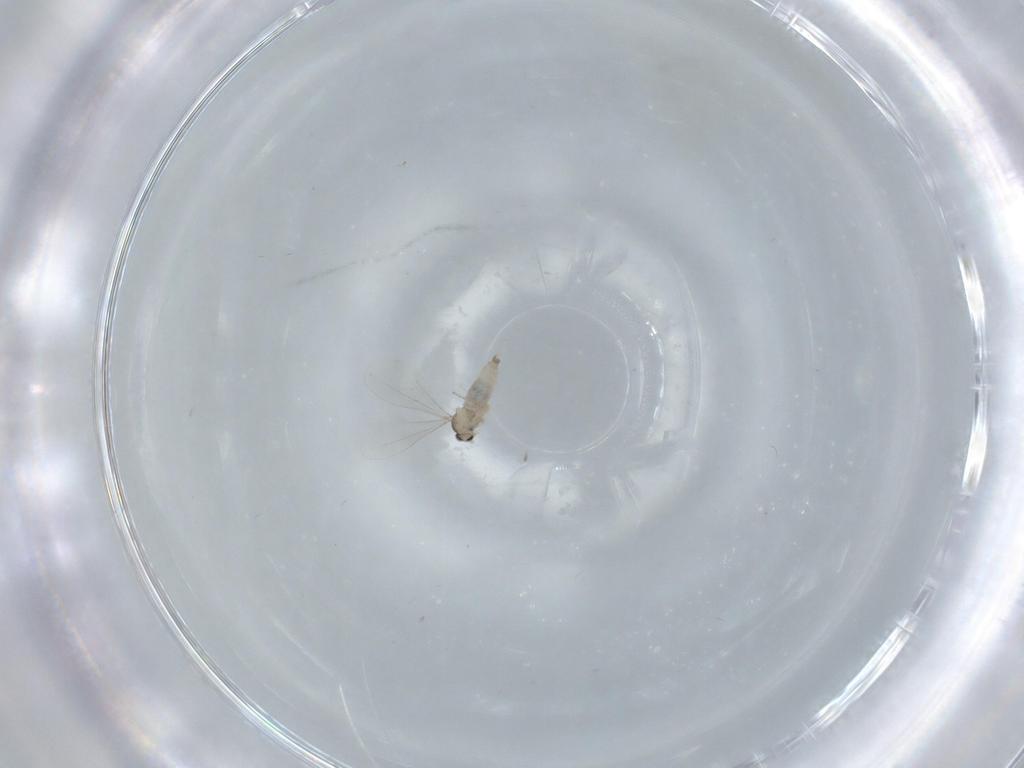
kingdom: Animalia
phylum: Arthropoda
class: Insecta
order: Diptera
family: Cecidomyiidae
